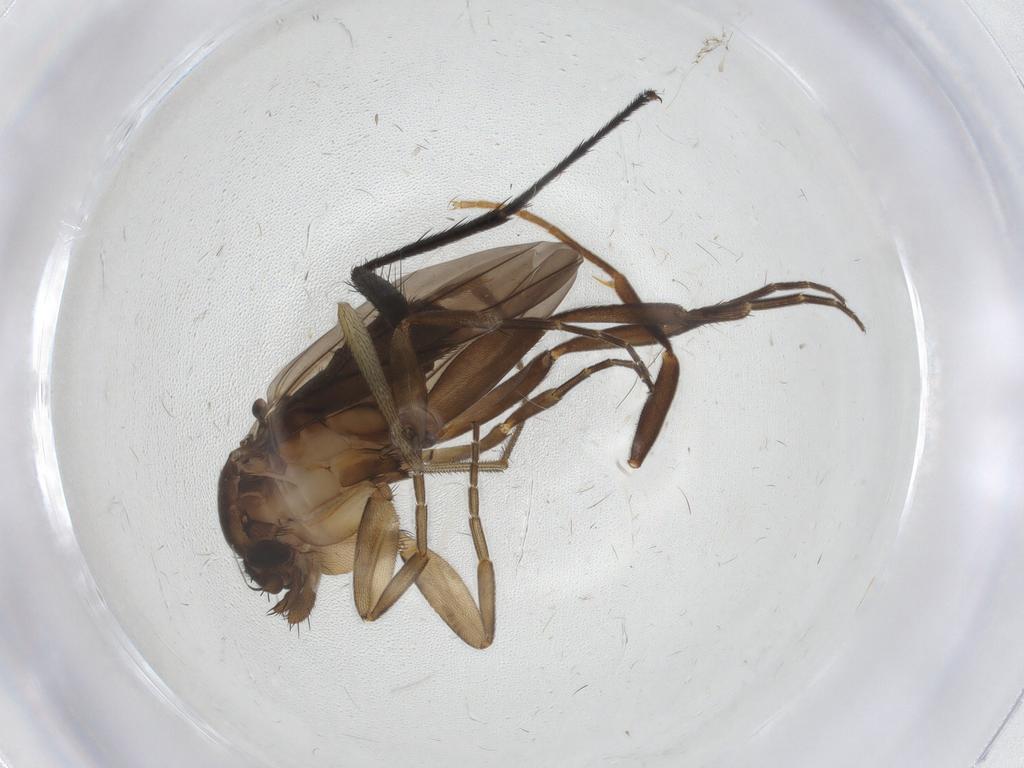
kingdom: Animalia
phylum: Arthropoda
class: Insecta
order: Diptera
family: Phoridae
